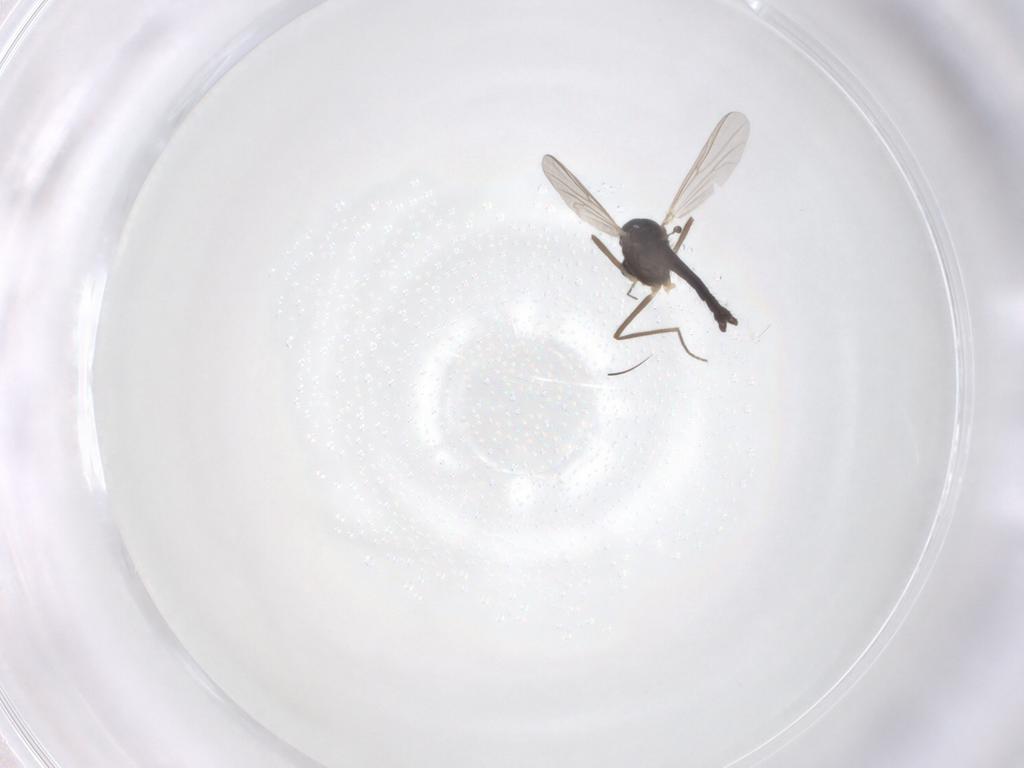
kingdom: Animalia
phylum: Arthropoda
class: Insecta
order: Diptera
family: Chironomidae
